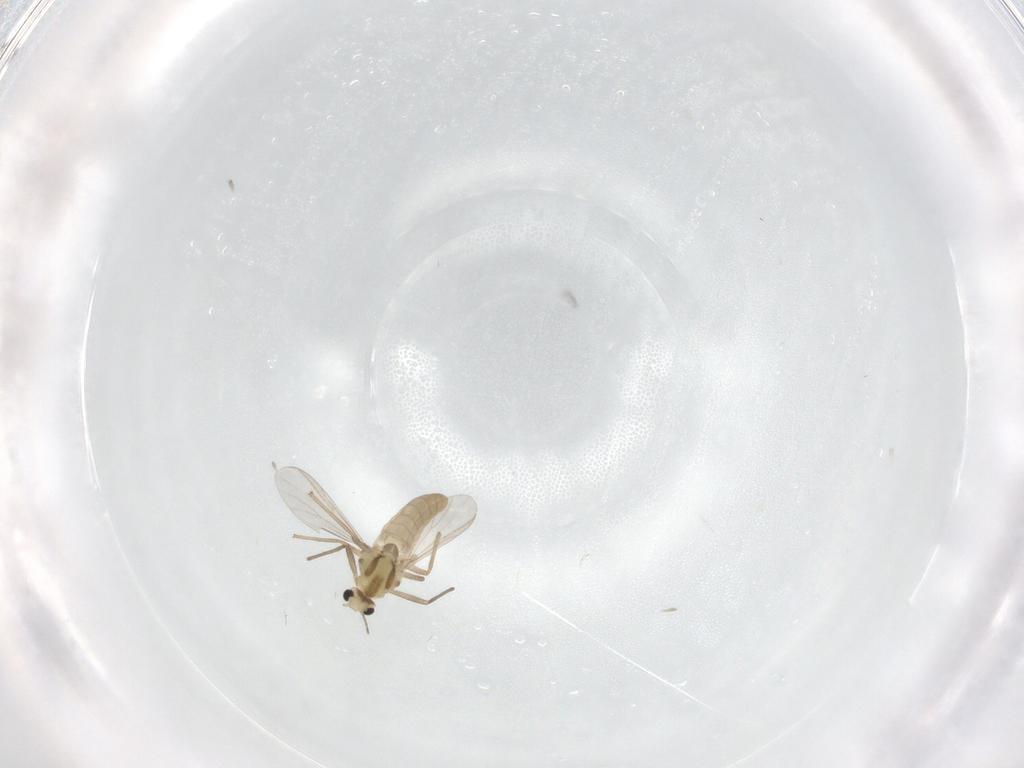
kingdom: Animalia
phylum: Arthropoda
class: Insecta
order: Diptera
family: Chironomidae
